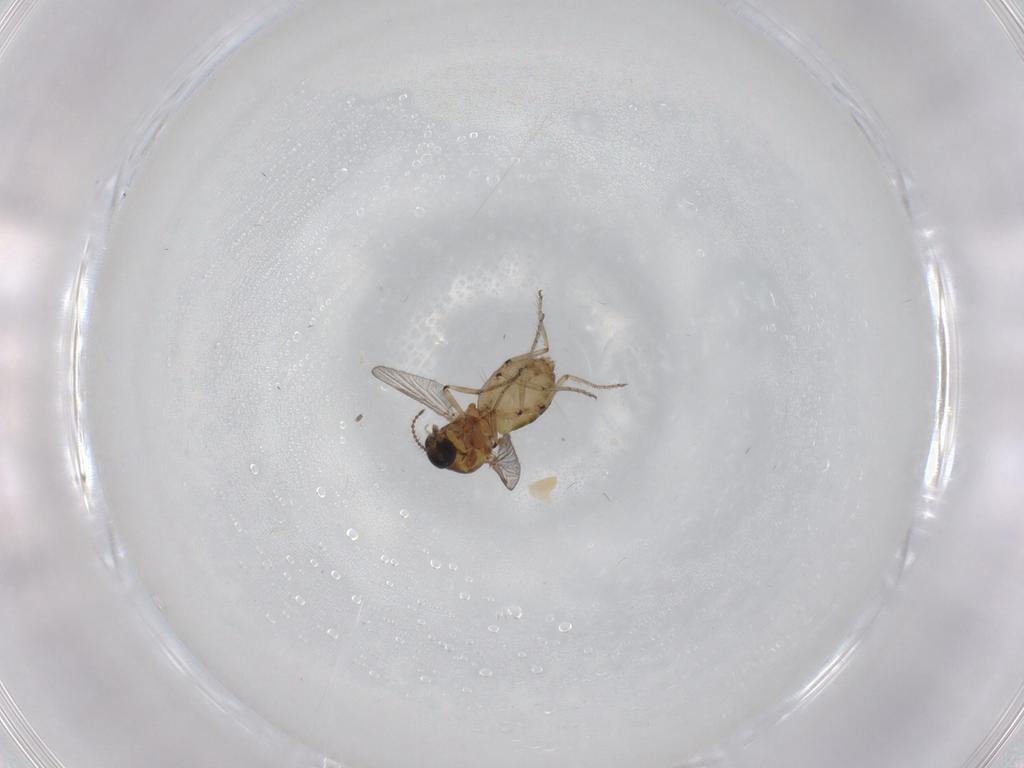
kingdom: Animalia
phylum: Arthropoda
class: Insecta
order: Diptera
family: Ceratopogonidae
